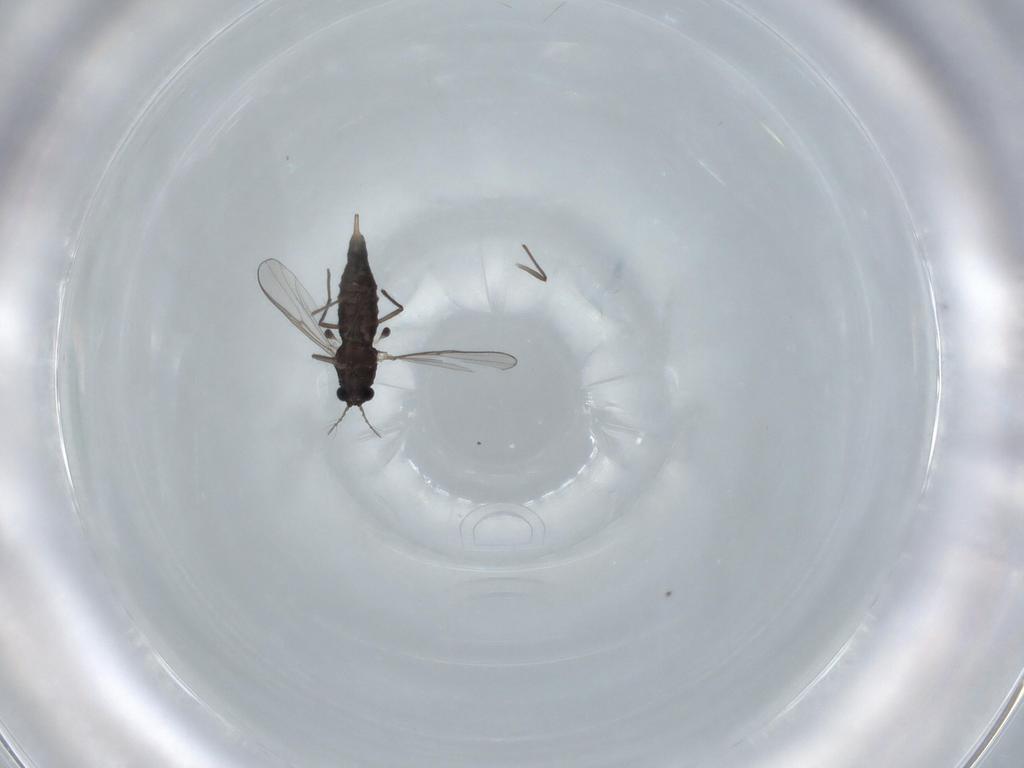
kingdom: Animalia
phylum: Arthropoda
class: Insecta
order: Diptera
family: Chironomidae
